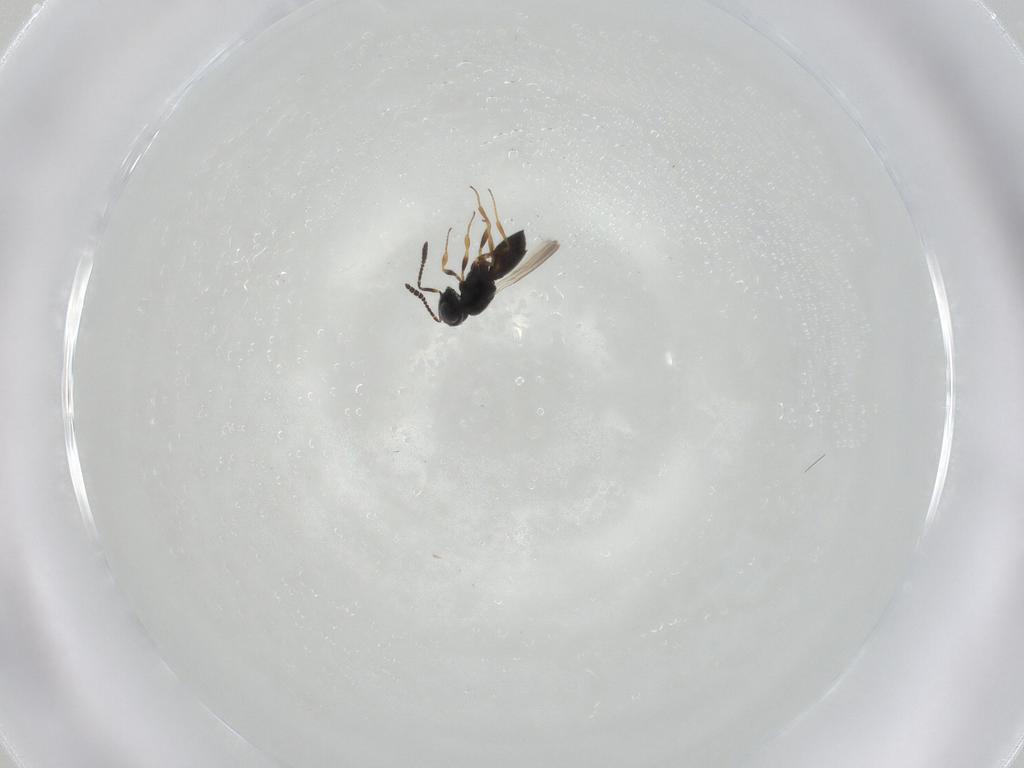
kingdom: Animalia
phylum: Arthropoda
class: Insecta
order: Hymenoptera
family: Scelionidae
